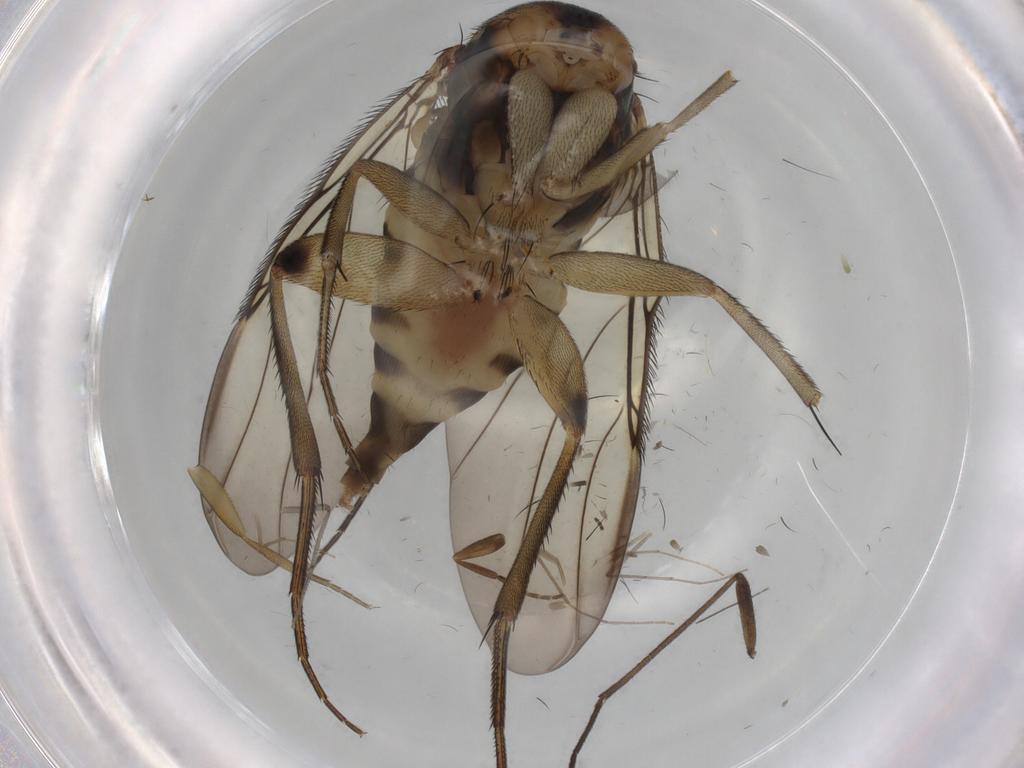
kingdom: Animalia
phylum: Arthropoda
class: Insecta
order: Diptera
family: Phoridae
